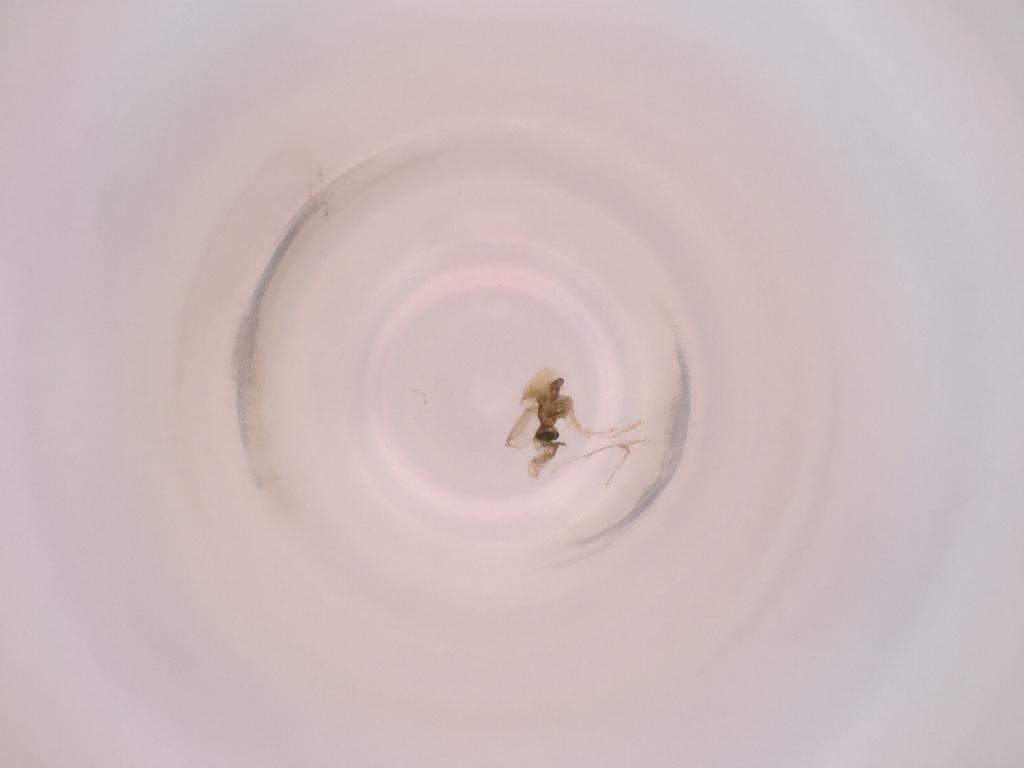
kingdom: Animalia
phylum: Arthropoda
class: Insecta
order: Diptera
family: Cecidomyiidae
